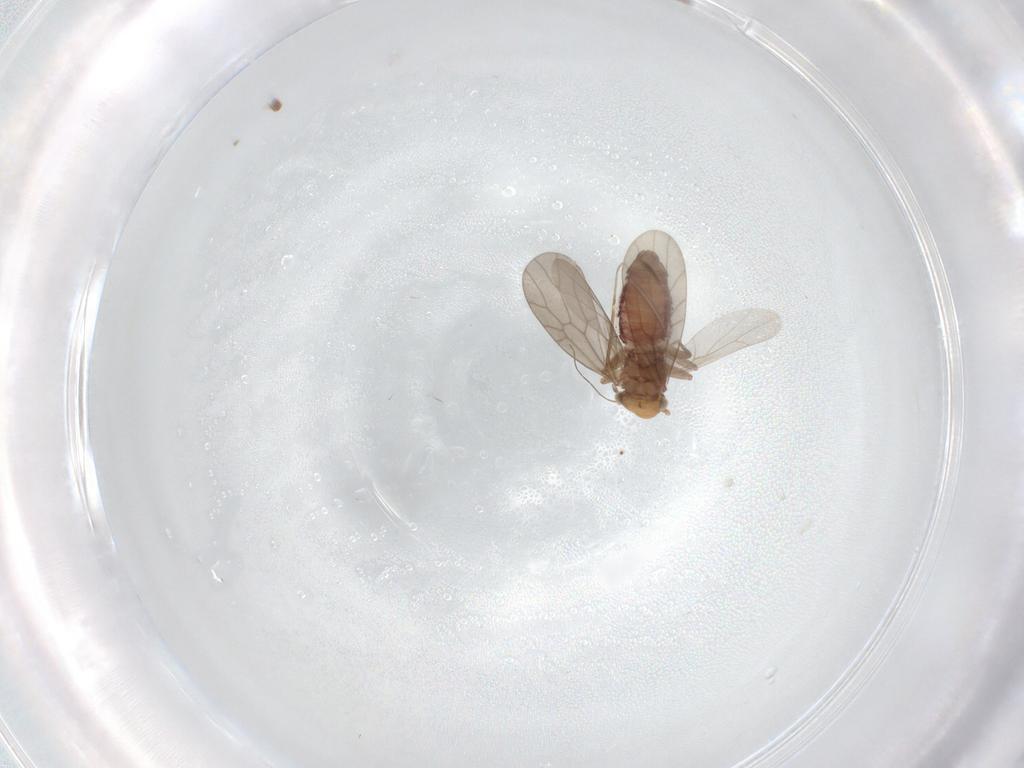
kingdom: Animalia
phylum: Arthropoda
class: Insecta
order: Psocodea
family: Lepidopsocidae
